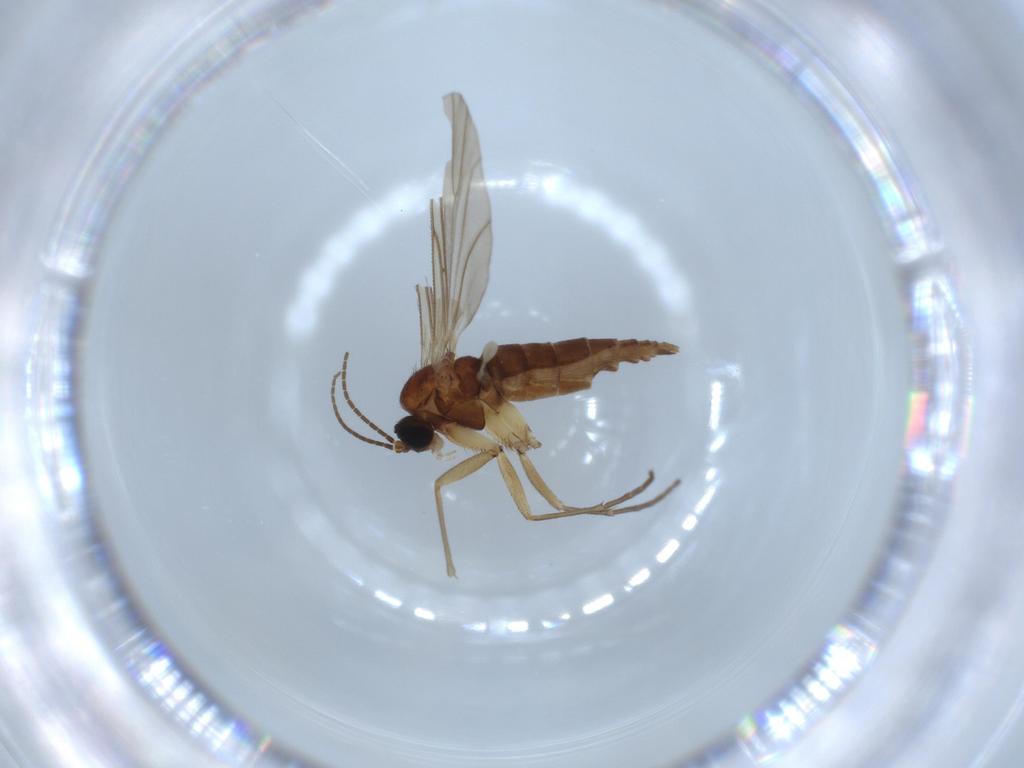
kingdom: Animalia
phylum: Arthropoda
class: Insecta
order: Diptera
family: Sciaridae
